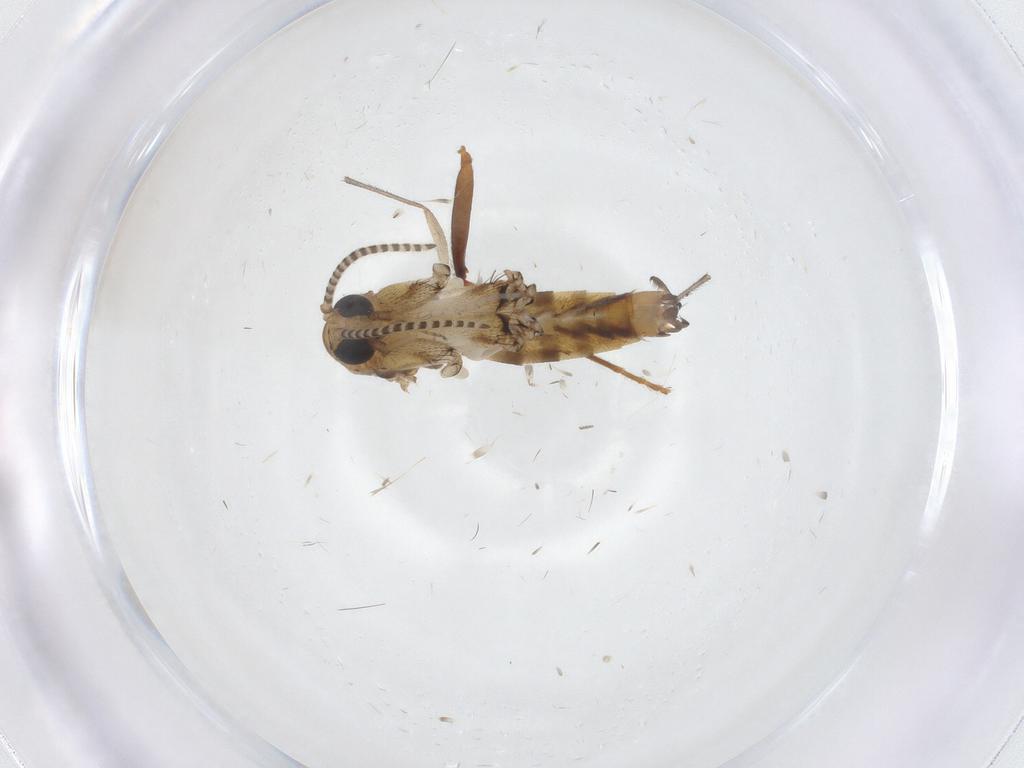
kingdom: Animalia
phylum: Arthropoda
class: Insecta
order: Diptera
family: Mycetophilidae
